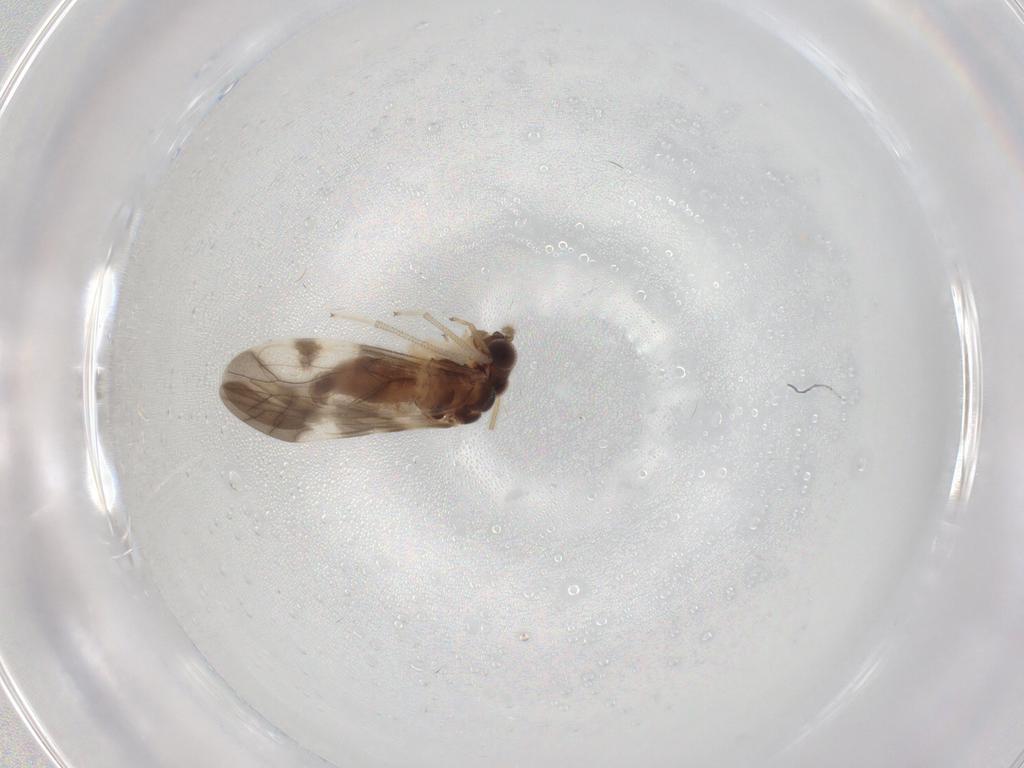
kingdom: Animalia
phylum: Arthropoda
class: Insecta
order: Psocodea
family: Archipsocidae
